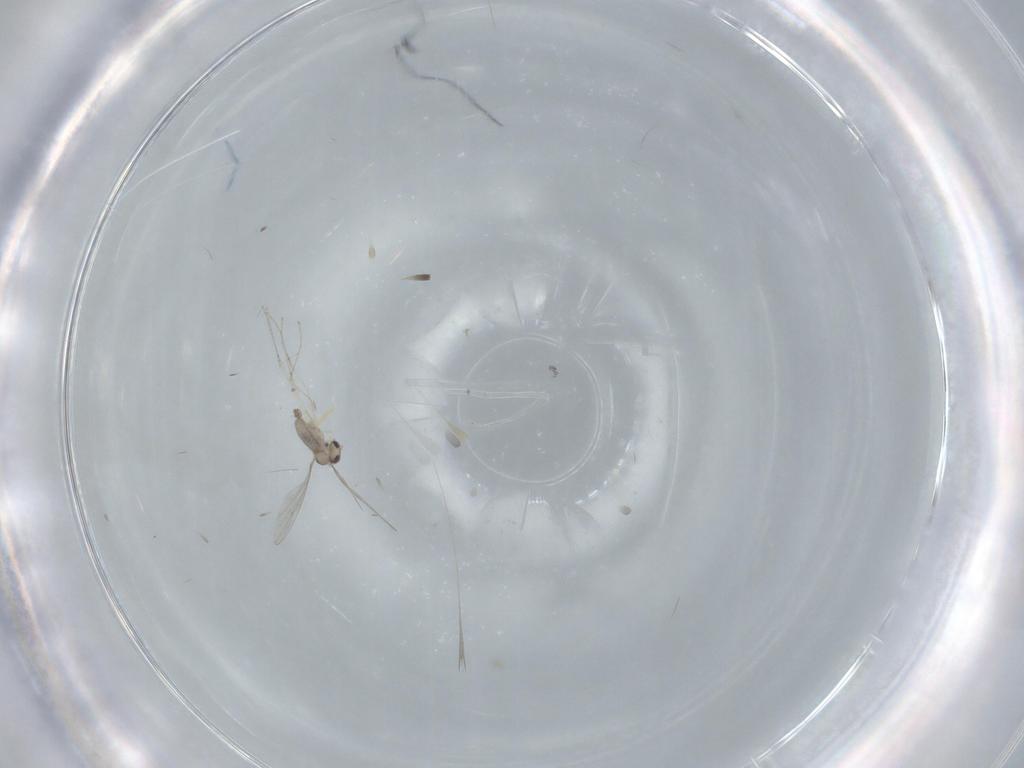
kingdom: Animalia
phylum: Arthropoda
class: Insecta
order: Diptera
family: Cecidomyiidae
